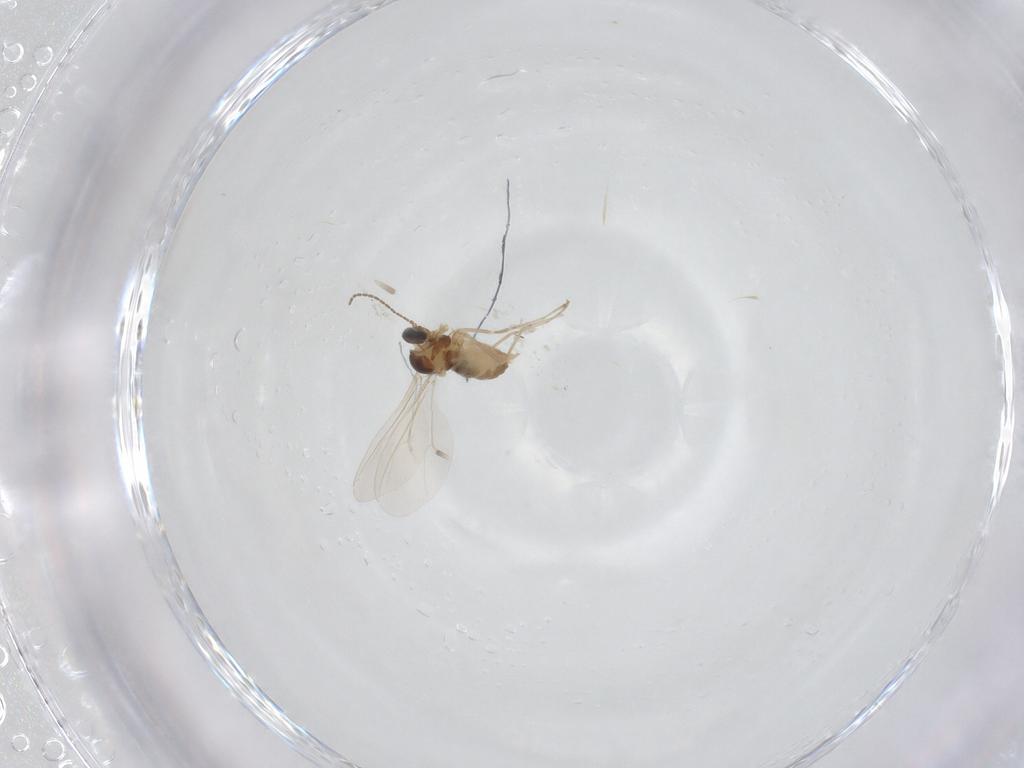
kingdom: Animalia
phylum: Arthropoda
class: Insecta
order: Diptera
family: Cecidomyiidae
